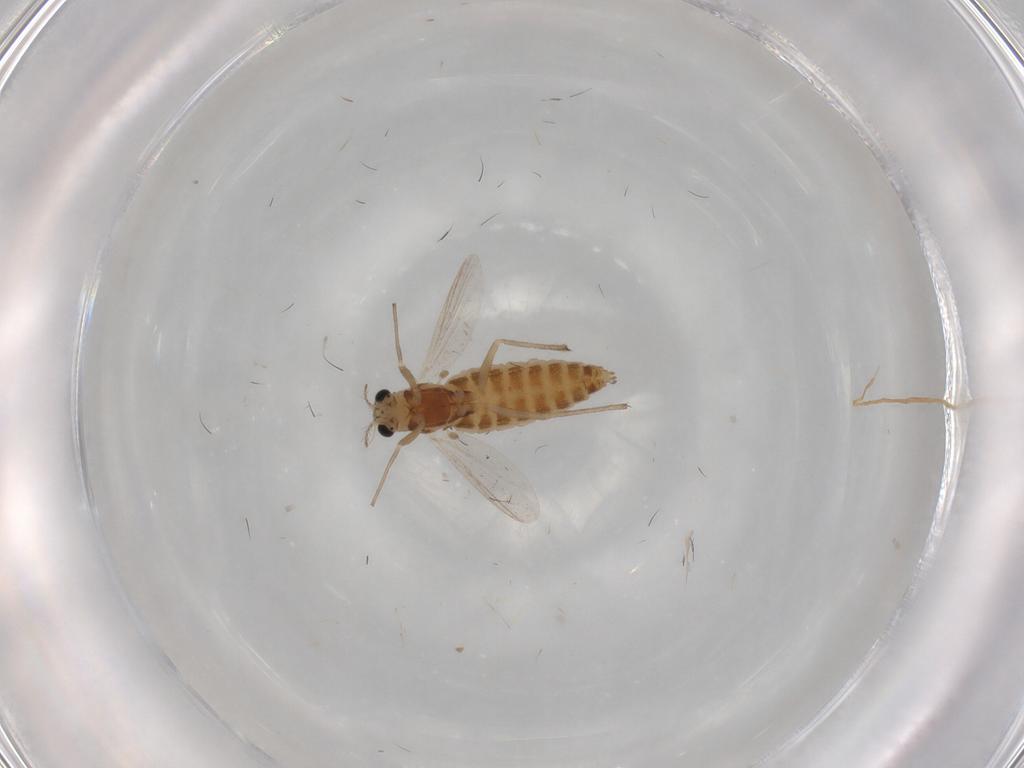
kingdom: Animalia
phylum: Arthropoda
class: Insecta
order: Diptera
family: Chironomidae
